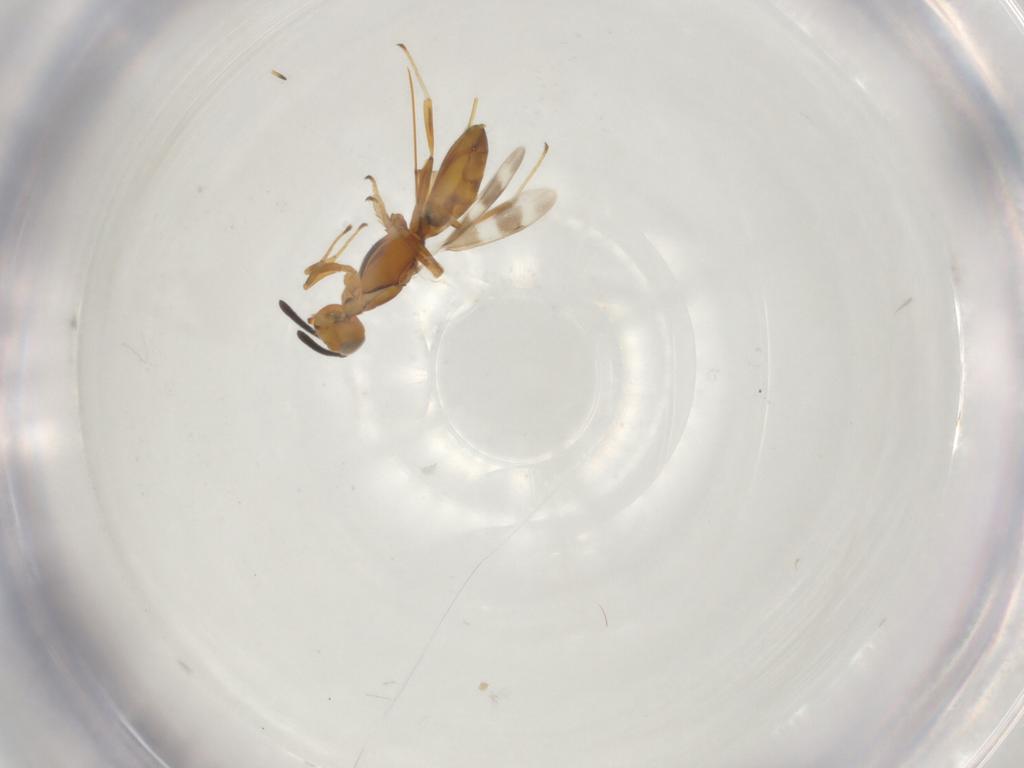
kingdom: Animalia
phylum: Arthropoda
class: Insecta
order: Hymenoptera
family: Eupelmidae
